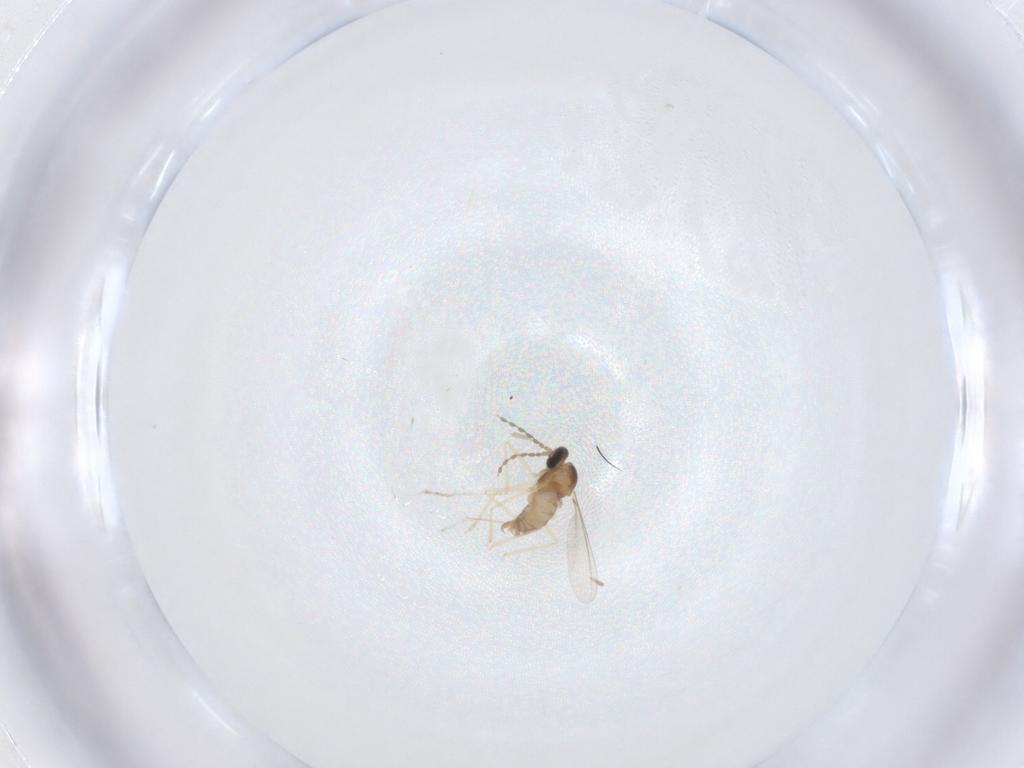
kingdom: Animalia
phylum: Arthropoda
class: Insecta
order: Diptera
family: Cecidomyiidae
